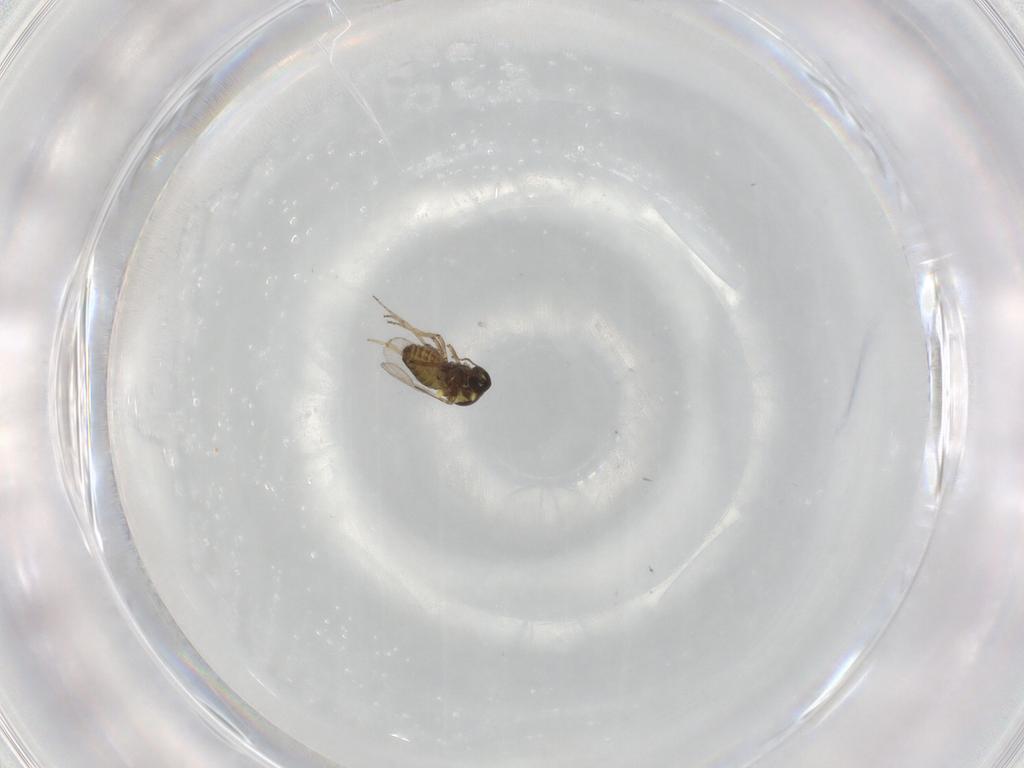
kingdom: Animalia
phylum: Arthropoda
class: Insecta
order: Diptera
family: Ceratopogonidae
